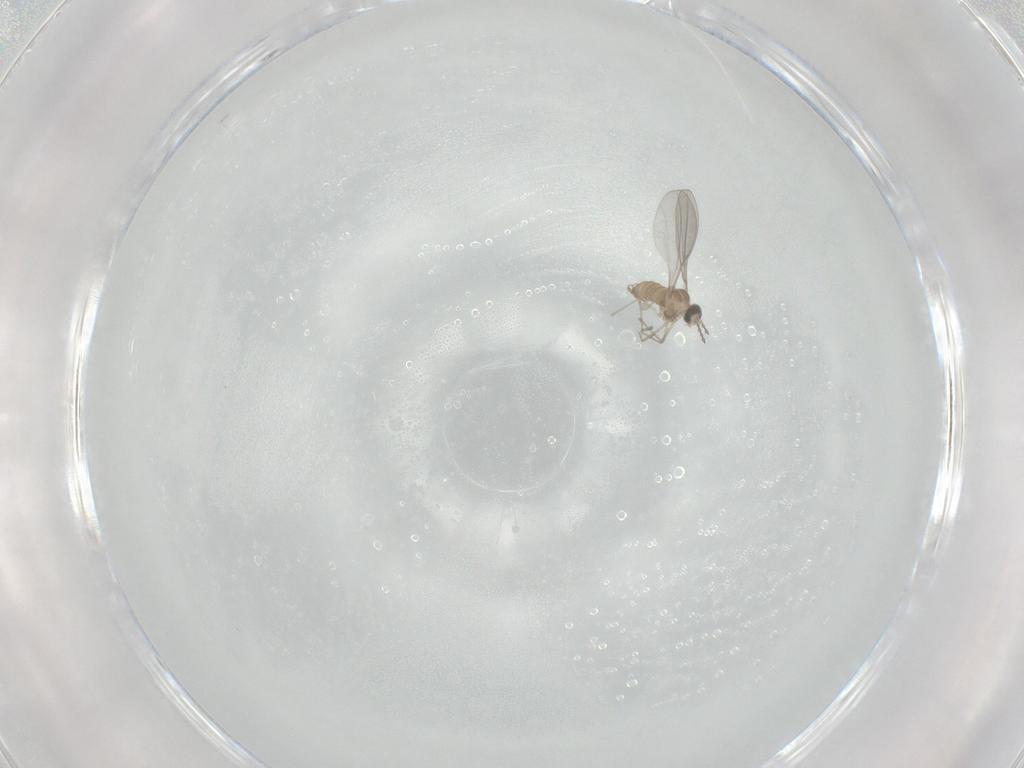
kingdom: Animalia
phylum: Arthropoda
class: Insecta
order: Diptera
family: Cecidomyiidae
